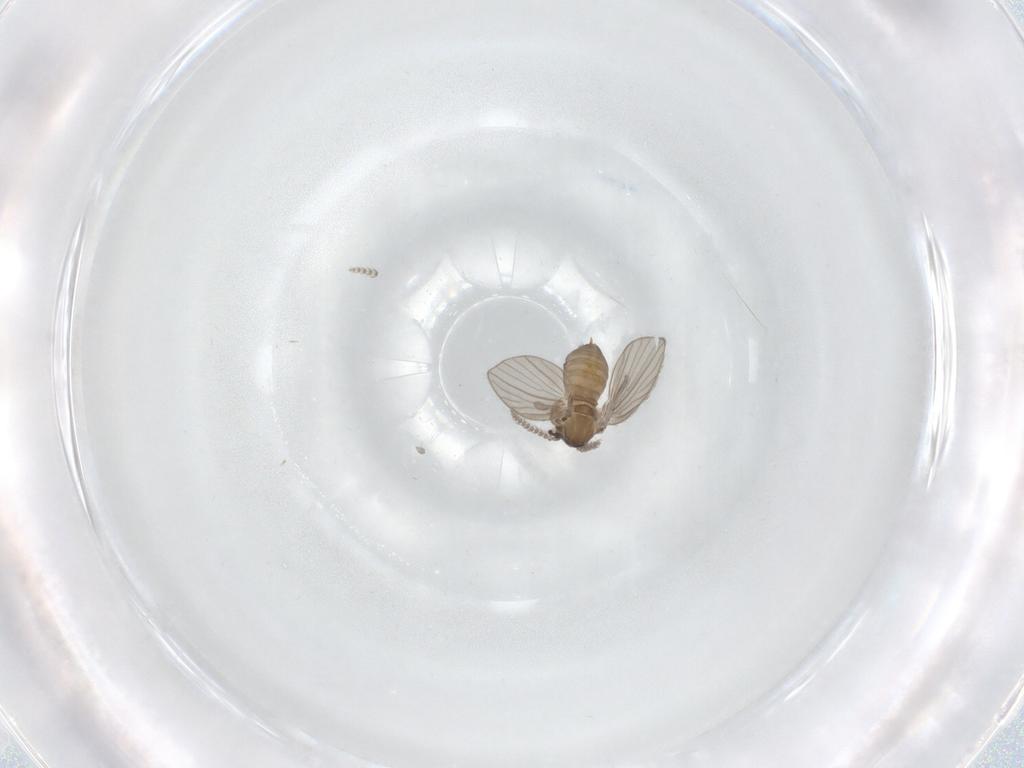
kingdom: Animalia
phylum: Arthropoda
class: Insecta
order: Diptera
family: Psychodidae
